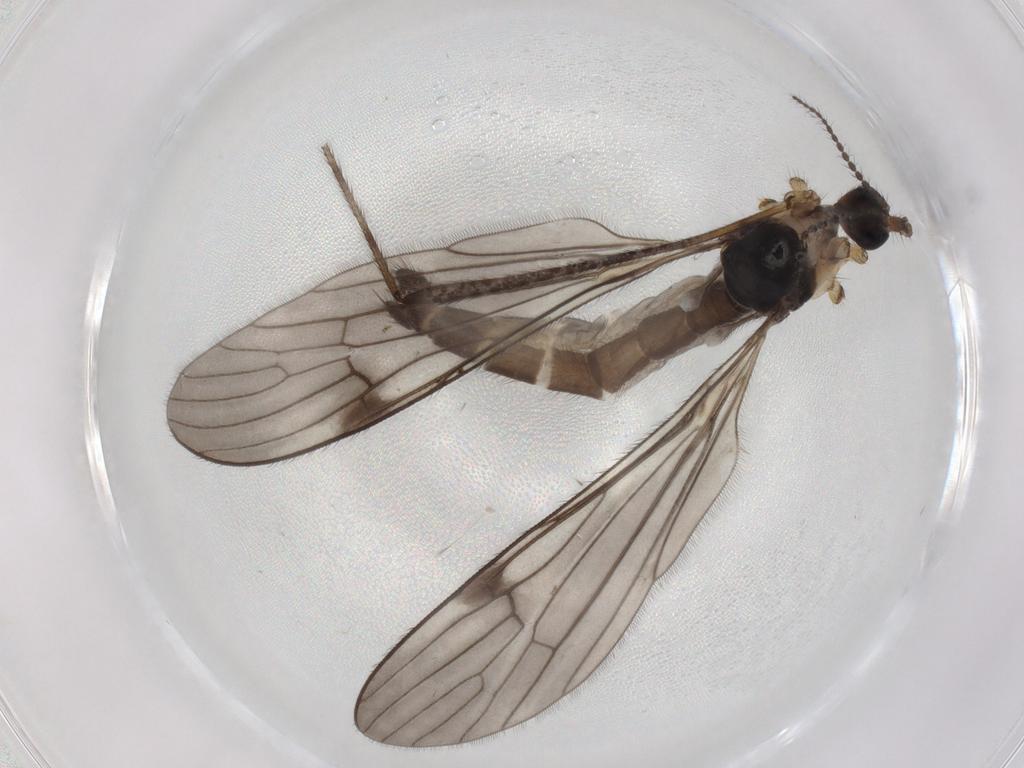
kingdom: Animalia
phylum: Arthropoda
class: Insecta
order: Diptera
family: Limoniidae
